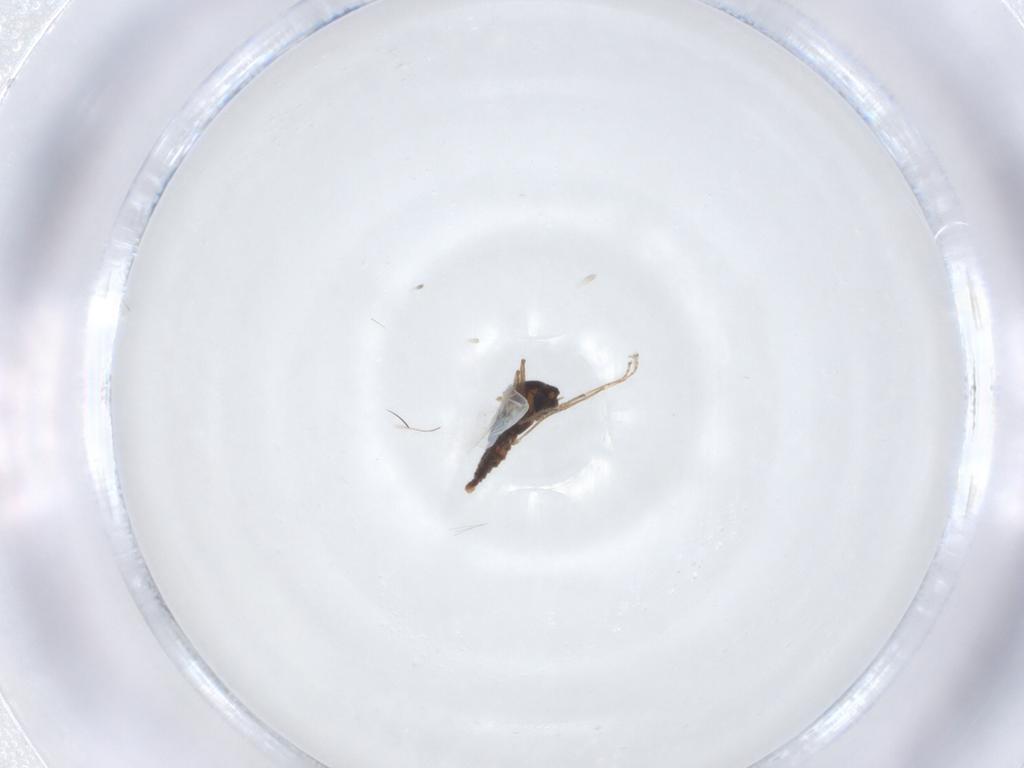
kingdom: Animalia
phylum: Arthropoda
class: Insecta
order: Diptera
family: Cecidomyiidae
